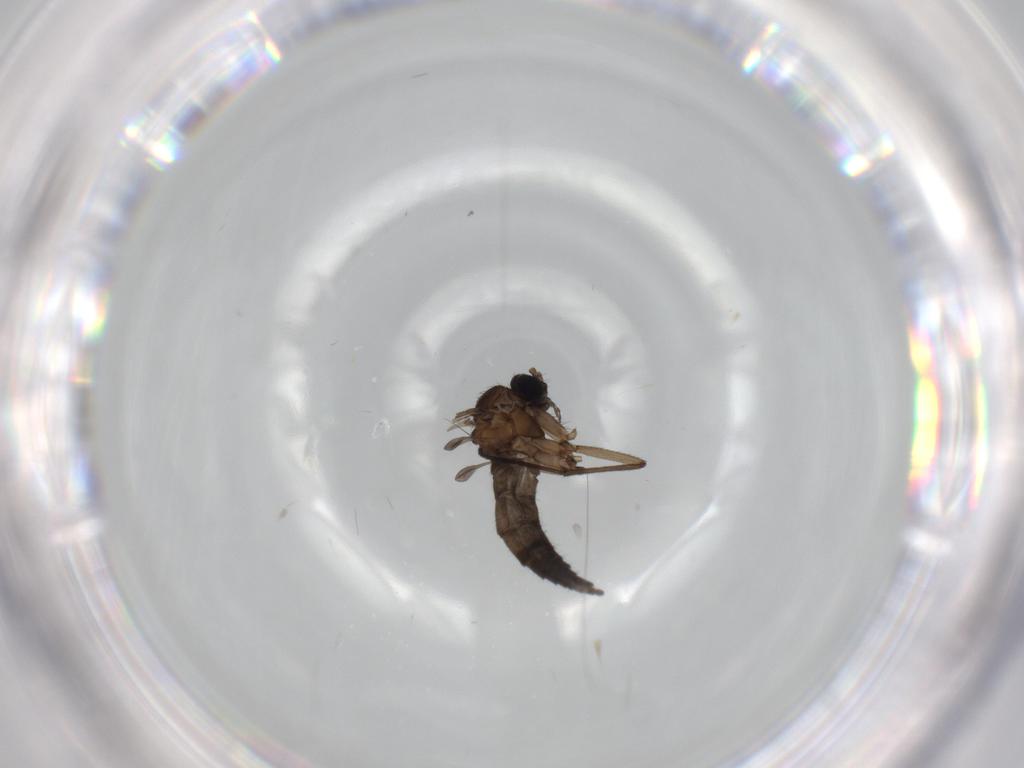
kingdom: Animalia
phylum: Arthropoda
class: Insecta
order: Diptera
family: Sciaridae
